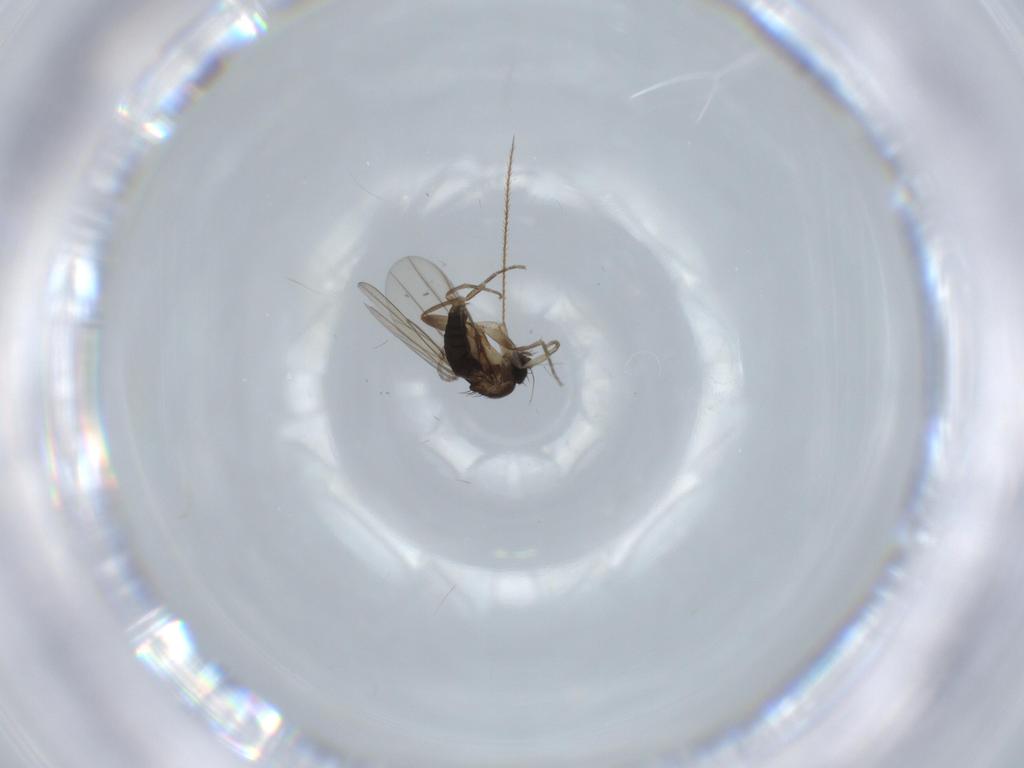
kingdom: Animalia
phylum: Arthropoda
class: Insecta
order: Diptera
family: Phoridae
